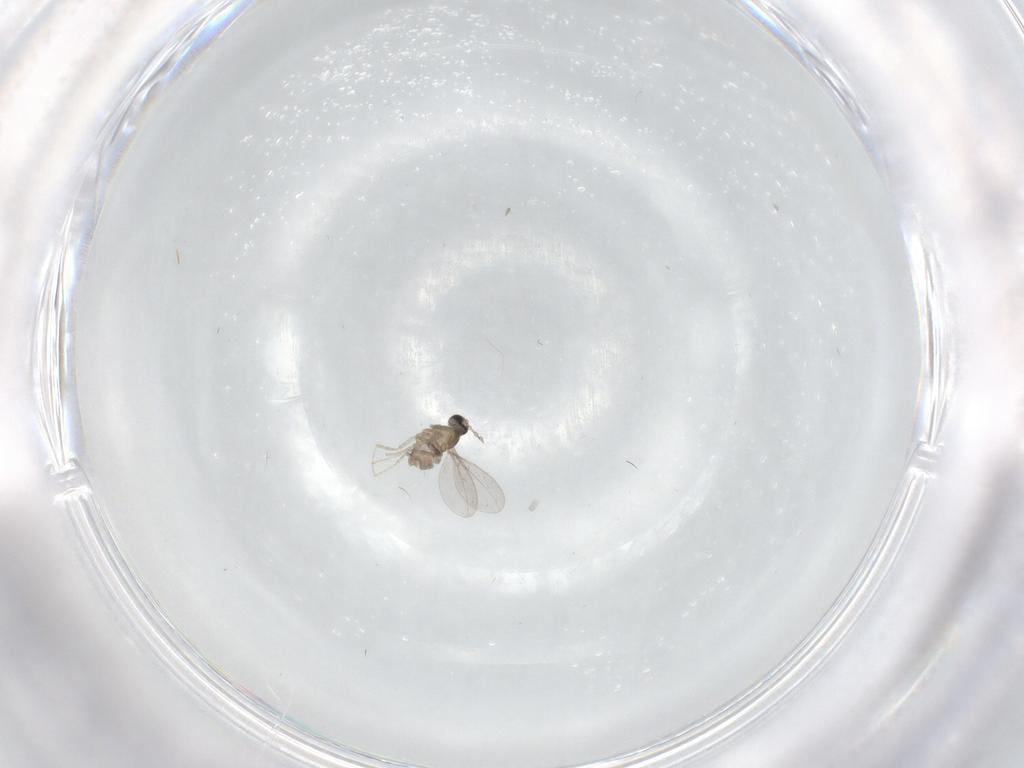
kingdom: Animalia
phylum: Arthropoda
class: Insecta
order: Diptera
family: Cecidomyiidae
